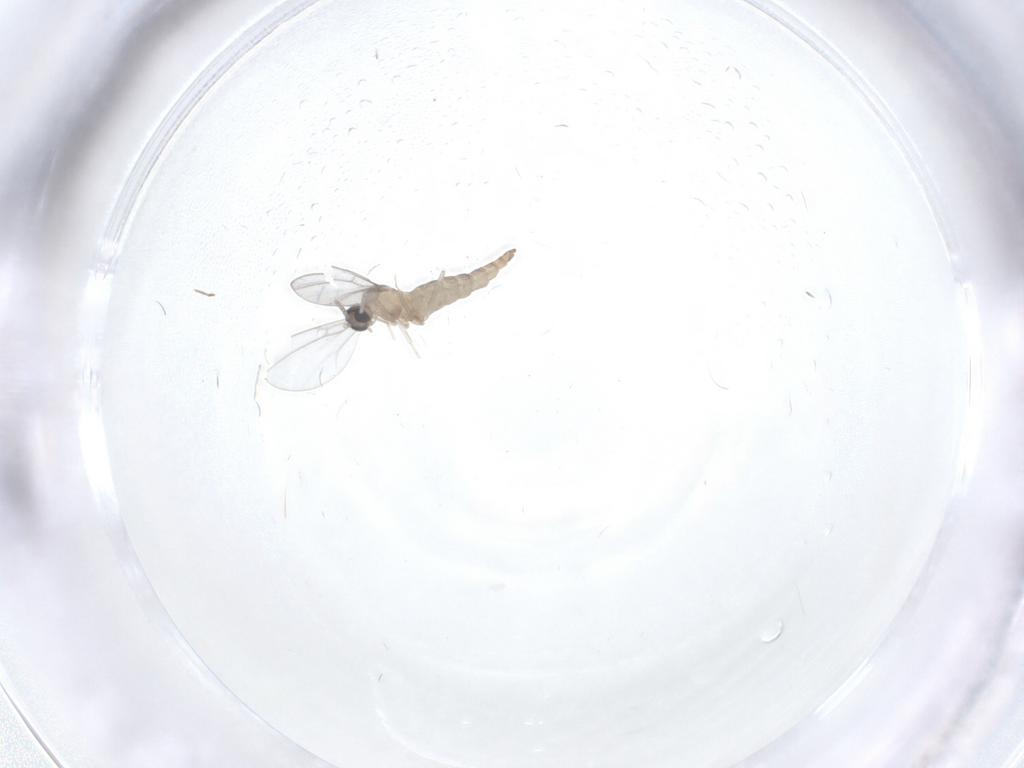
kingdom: Animalia
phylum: Arthropoda
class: Insecta
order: Diptera
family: Cecidomyiidae
